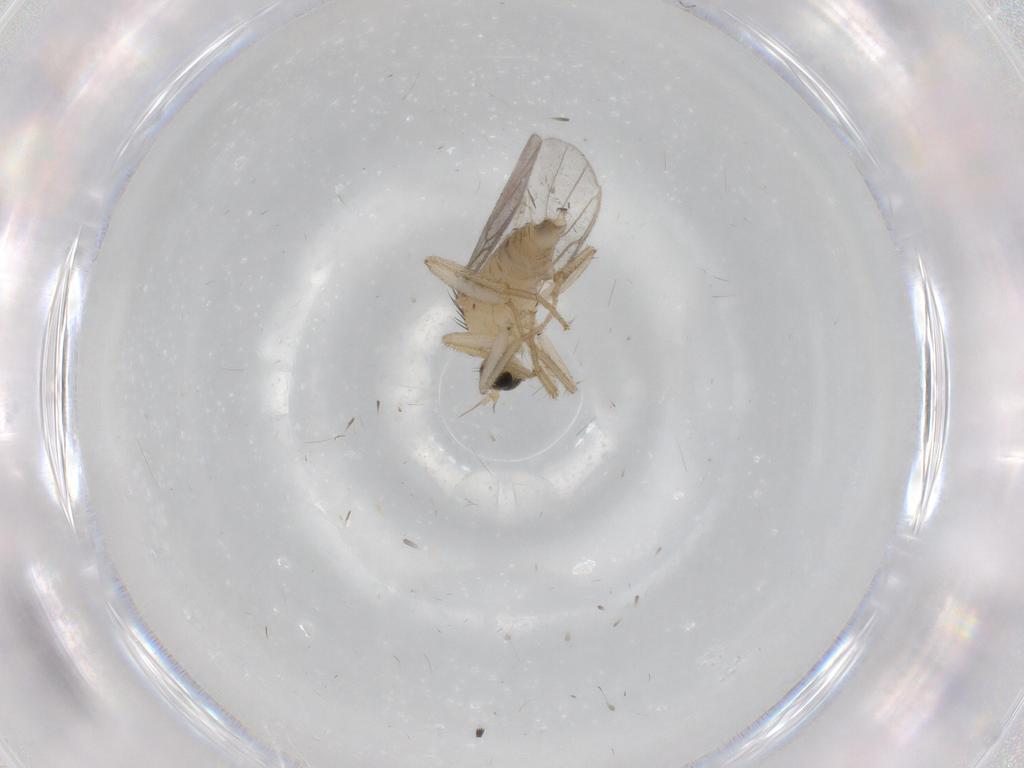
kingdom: Animalia
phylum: Arthropoda
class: Insecta
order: Diptera
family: Hybotidae
